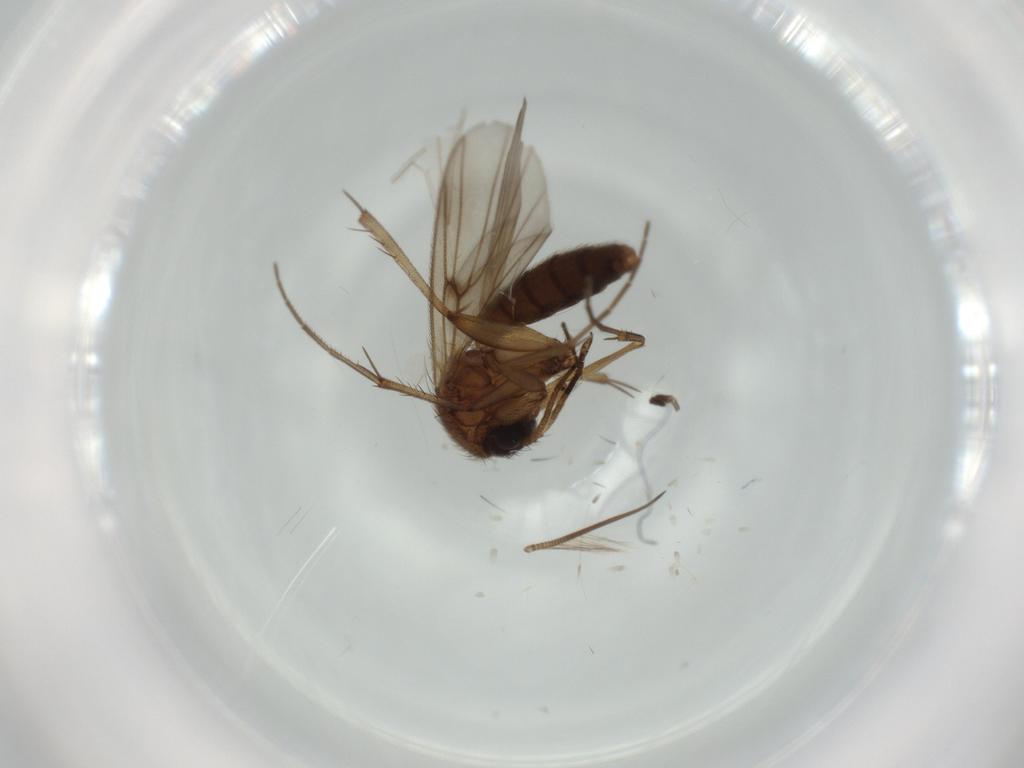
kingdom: Animalia
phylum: Arthropoda
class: Insecta
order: Diptera
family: Mycetophilidae
